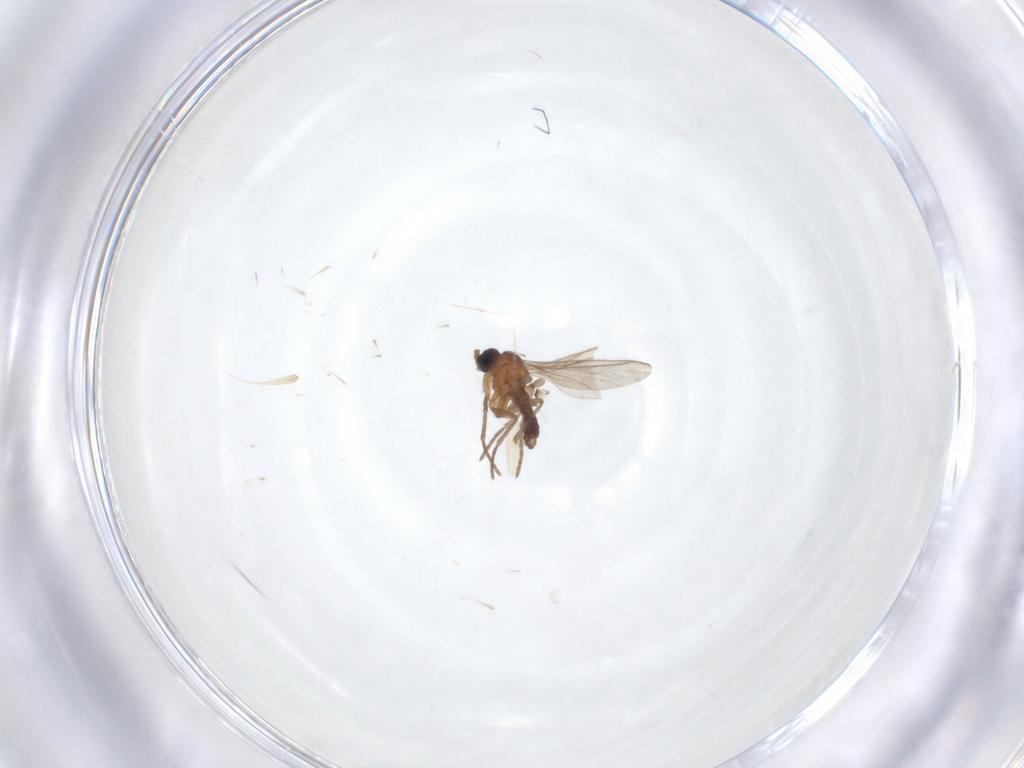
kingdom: Animalia
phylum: Arthropoda
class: Insecta
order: Diptera
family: Chironomidae
